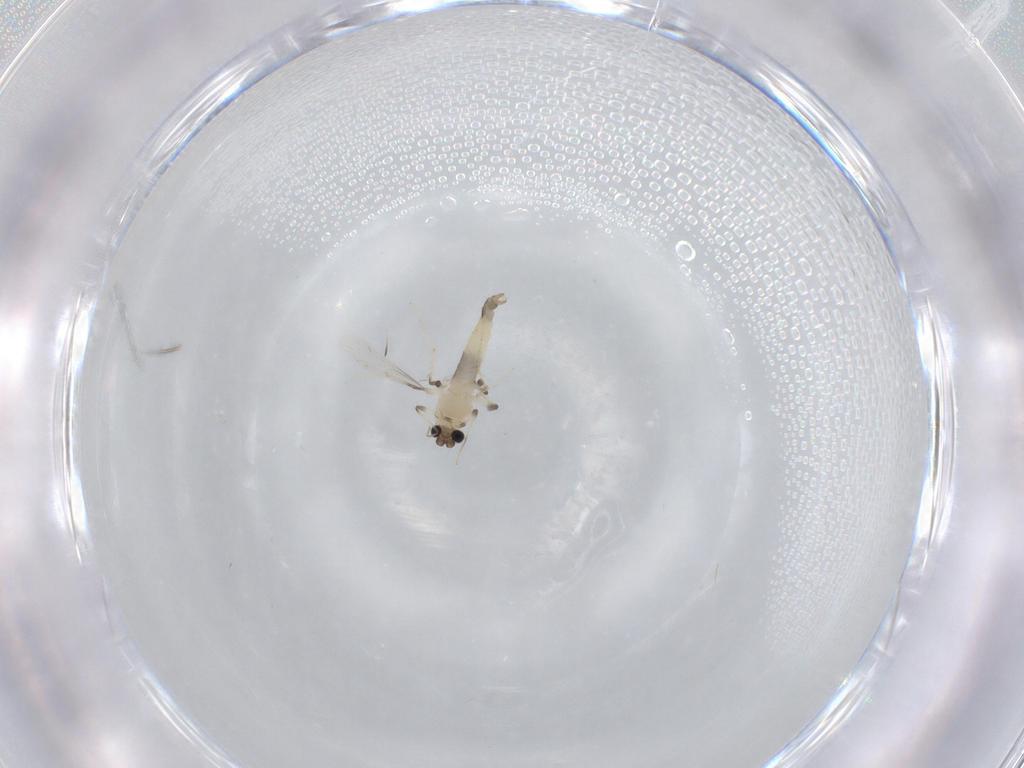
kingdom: Animalia
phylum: Arthropoda
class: Insecta
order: Diptera
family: Chironomidae
